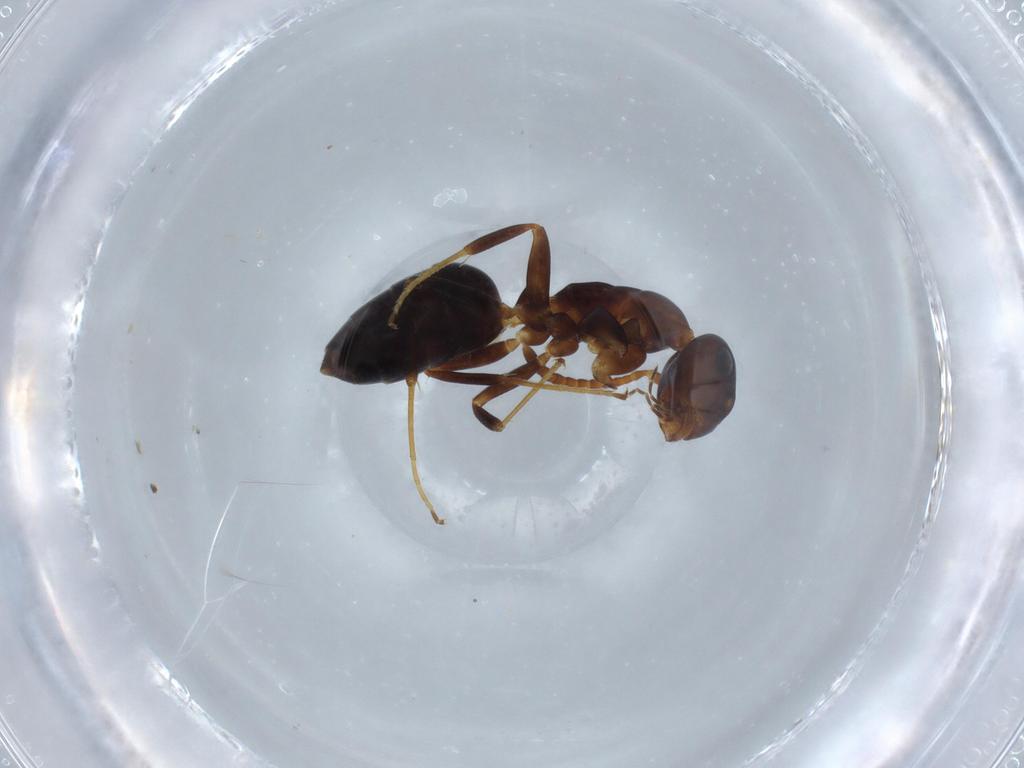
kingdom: Animalia
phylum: Arthropoda
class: Insecta
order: Hymenoptera
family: Formicidae
